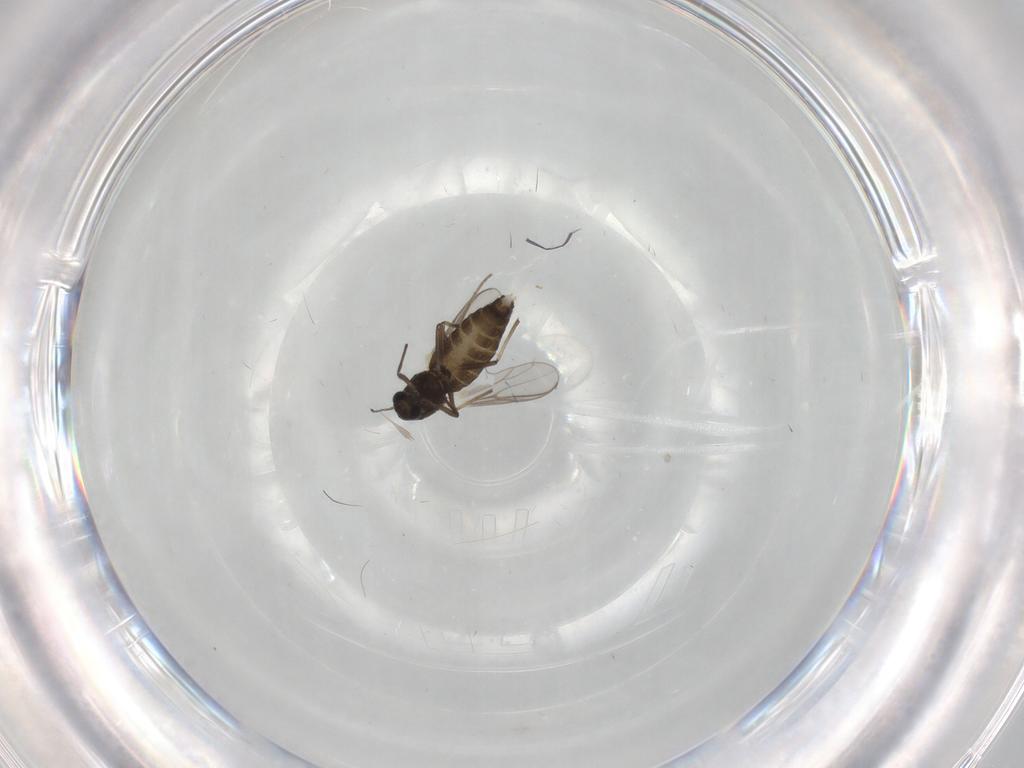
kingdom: Animalia
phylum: Arthropoda
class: Insecta
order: Diptera
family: Chironomidae
